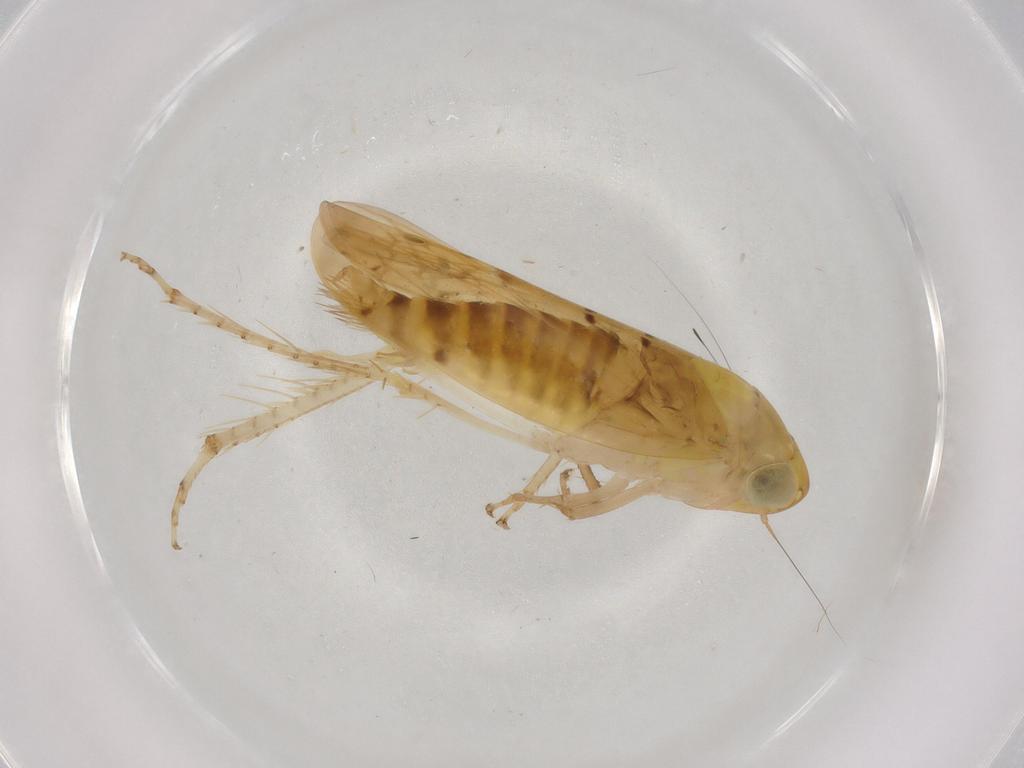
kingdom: Animalia
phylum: Arthropoda
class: Insecta
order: Hemiptera
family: Cicadellidae
